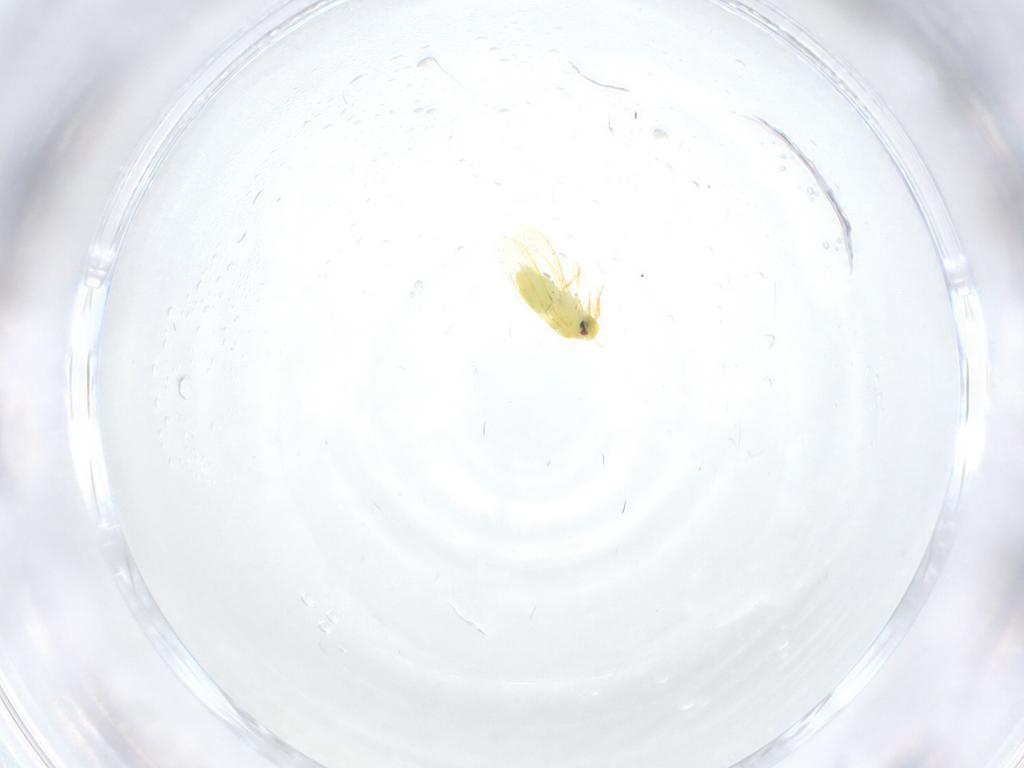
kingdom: Animalia
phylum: Arthropoda
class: Insecta
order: Hemiptera
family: Aleyrodidae
